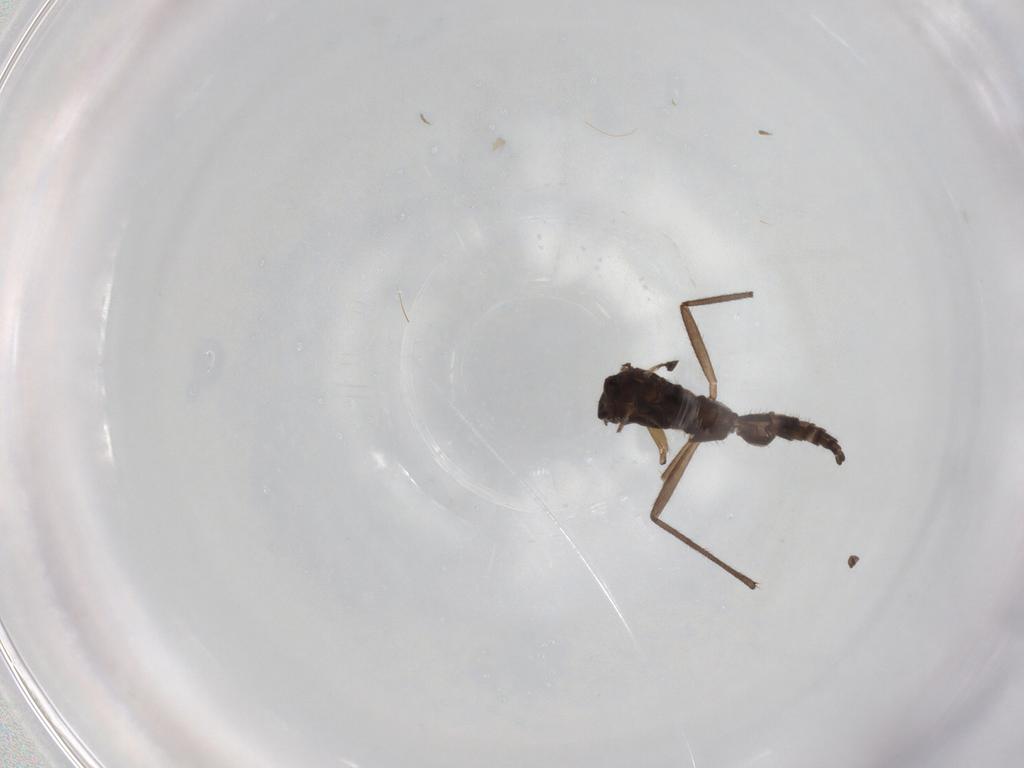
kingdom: Animalia
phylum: Arthropoda
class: Insecta
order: Diptera
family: Sciaridae
